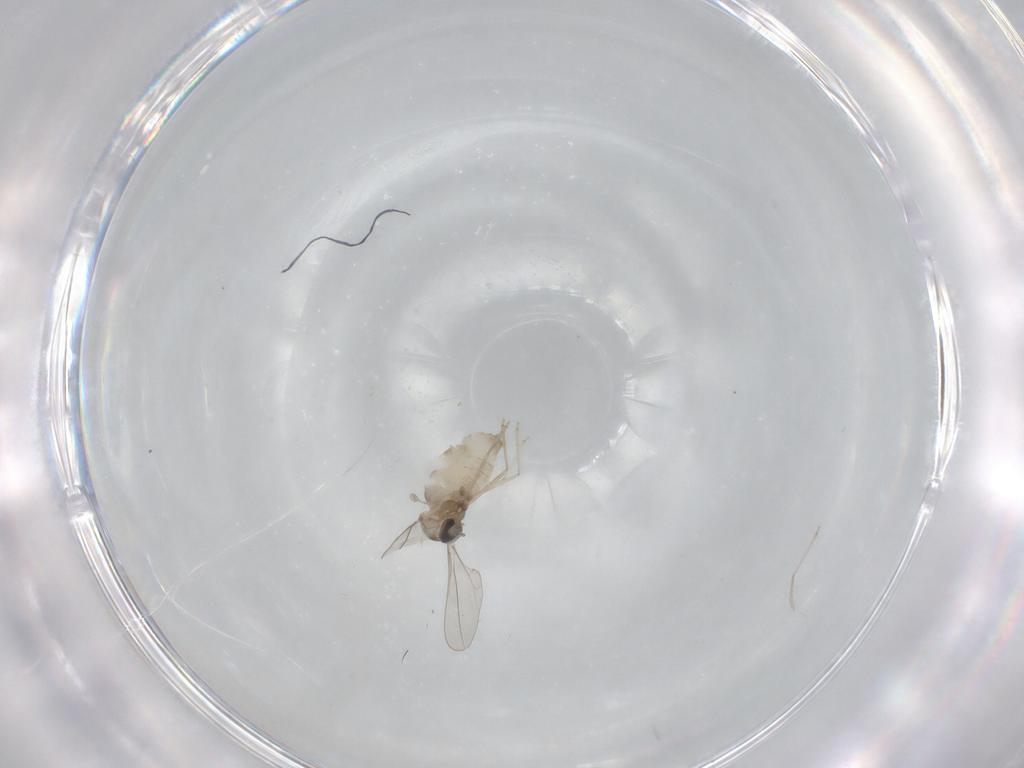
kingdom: Animalia
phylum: Arthropoda
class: Insecta
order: Diptera
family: Cecidomyiidae
